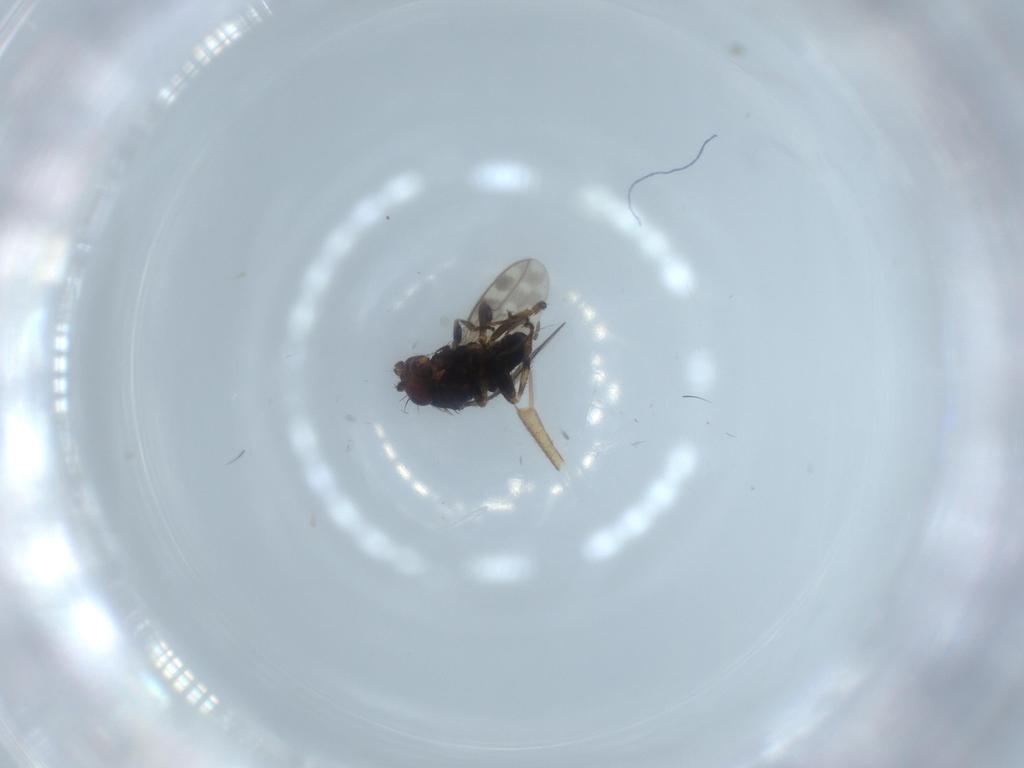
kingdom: Animalia
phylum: Arthropoda
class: Insecta
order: Diptera
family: Sphaeroceridae
